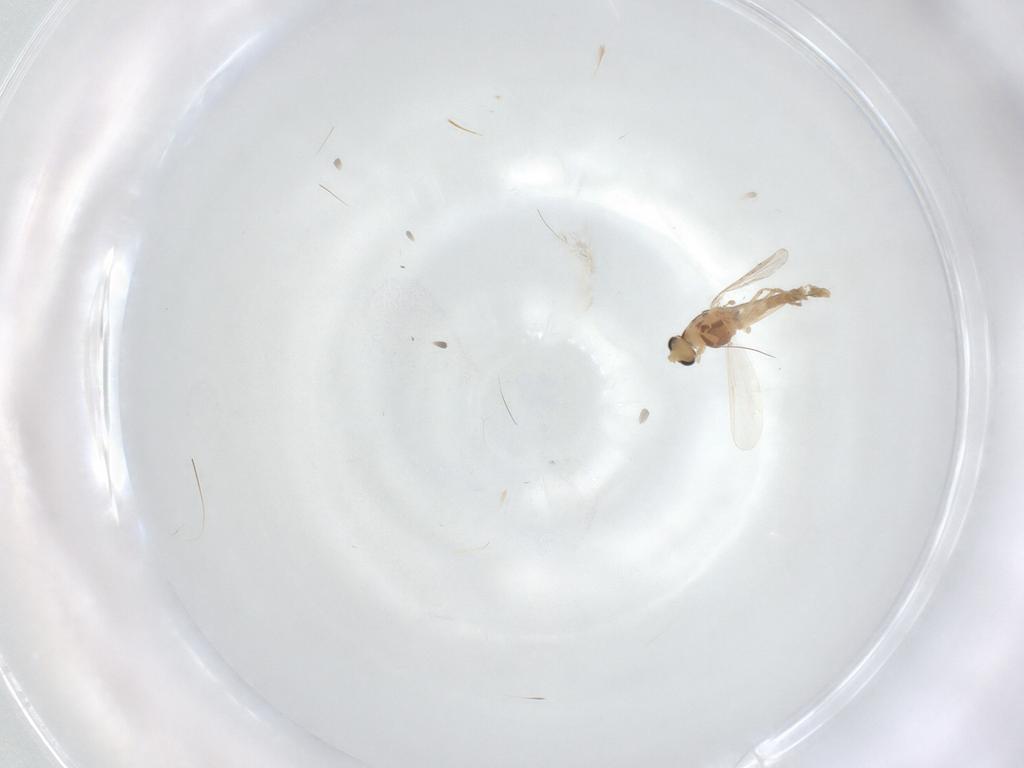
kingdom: Animalia
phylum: Arthropoda
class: Insecta
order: Diptera
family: Chironomidae
